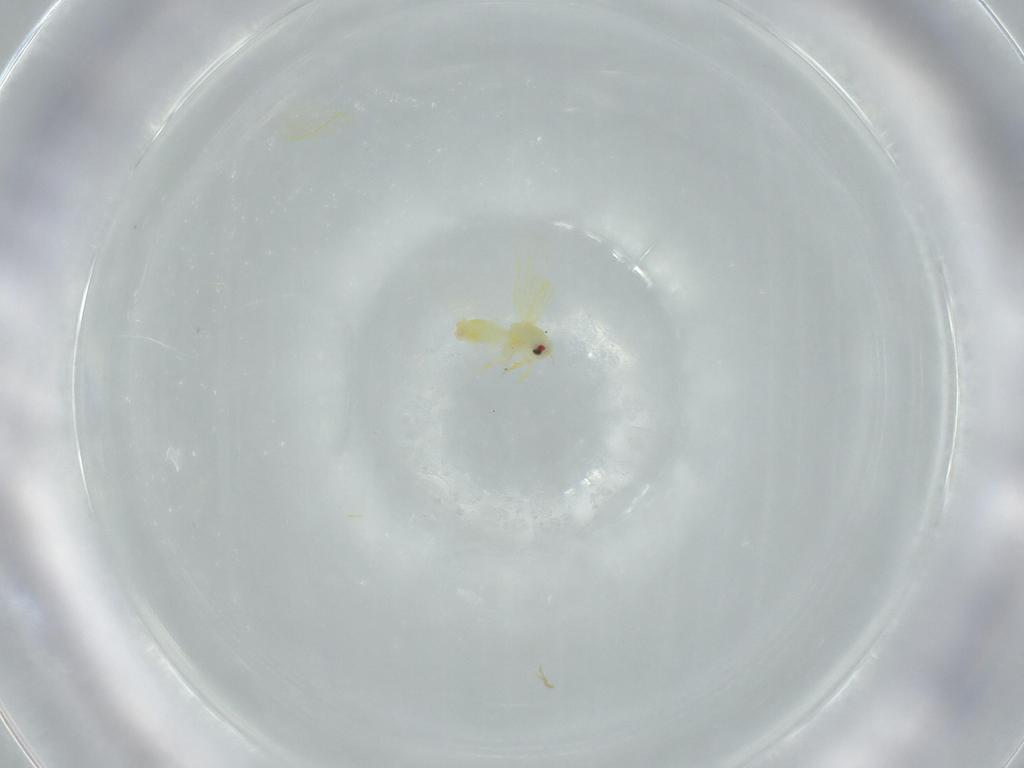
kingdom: Animalia
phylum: Arthropoda
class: Insecta
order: Hemiptera
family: Aleyrodidae
